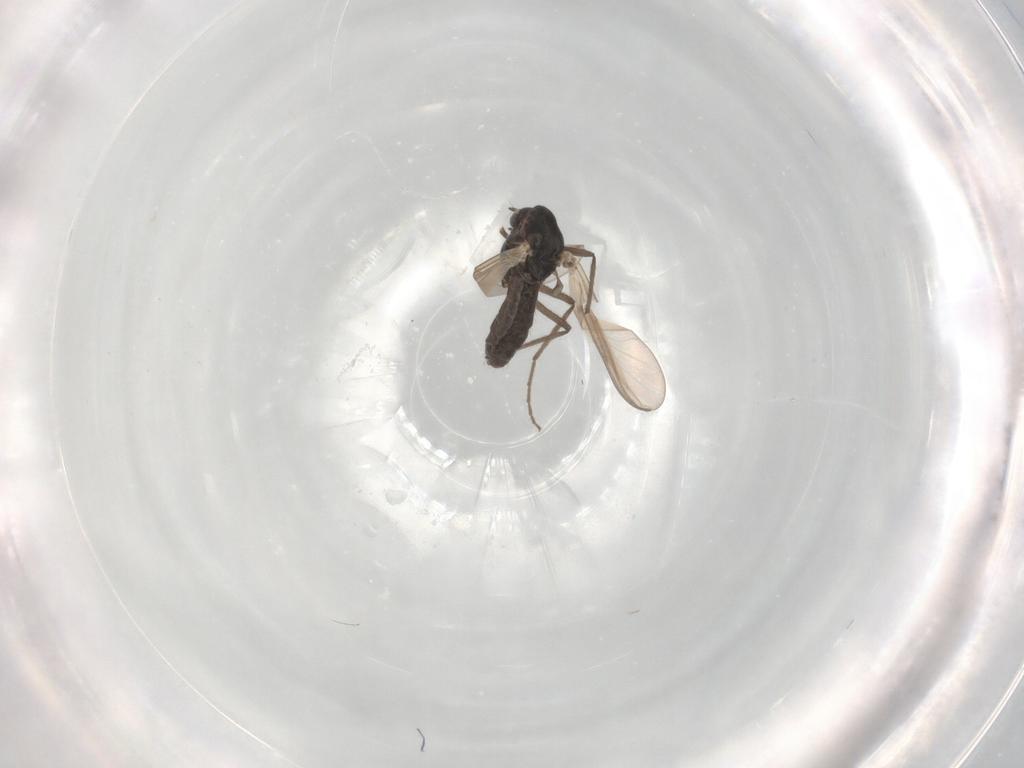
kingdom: Animalia
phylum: Arthropoda
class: Insecta
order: Diptera
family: Chironomidae
